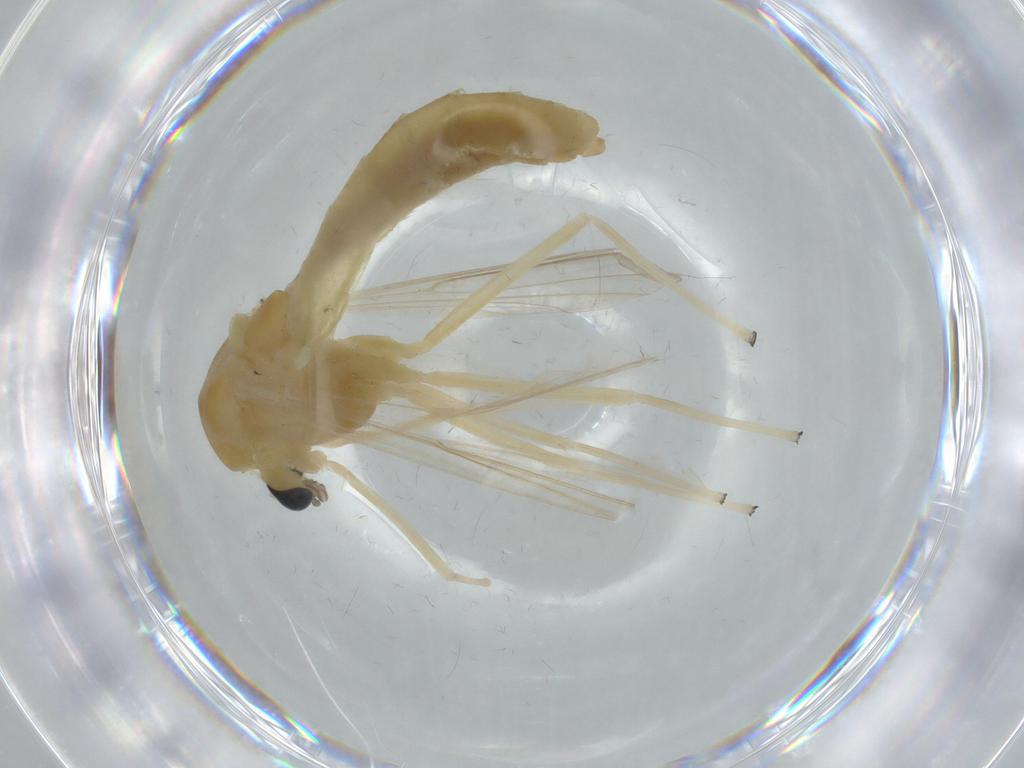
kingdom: Animalia
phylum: Arthropoda
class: Insecta
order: Diptera
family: Chironomidae
